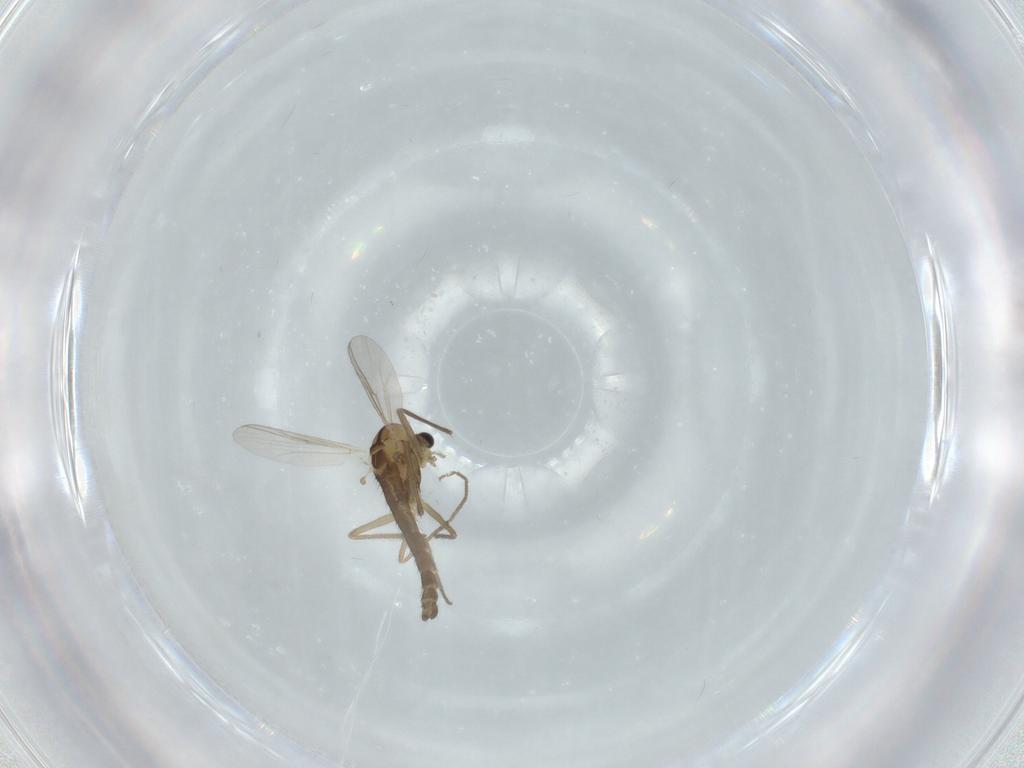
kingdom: Animalia
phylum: Arthropoda
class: Insecta
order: Diptera
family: Chironomidae
